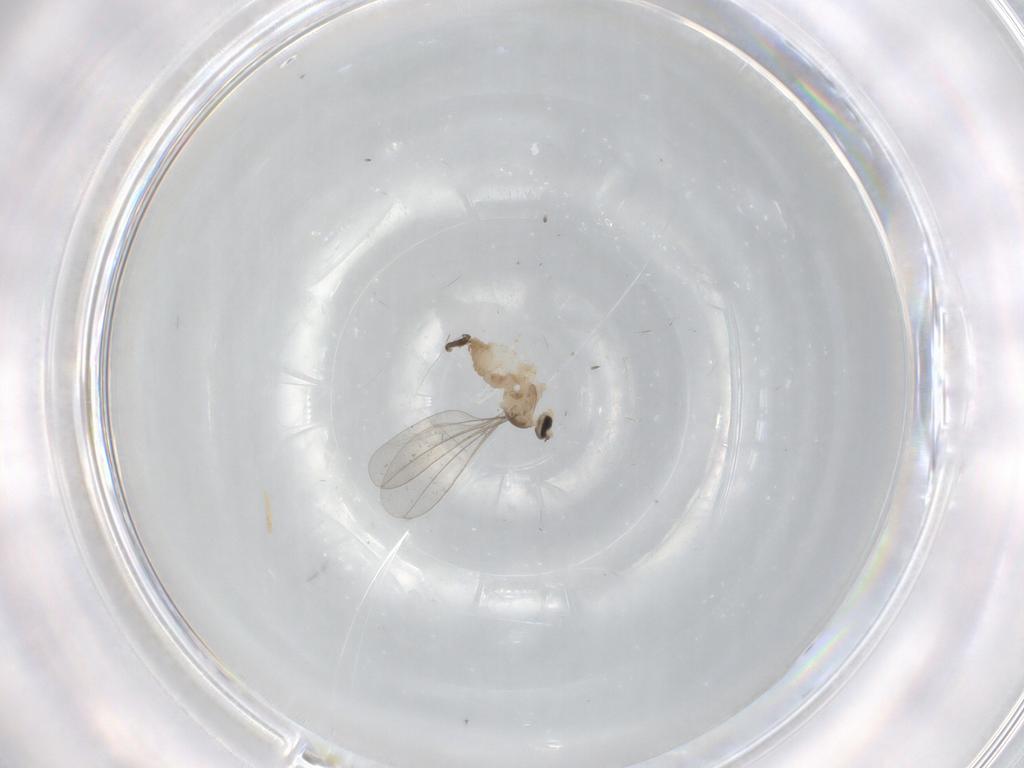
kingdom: Animalia
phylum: Arthropoda
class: Insecta
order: Diptera
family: Cecidomyiidae
